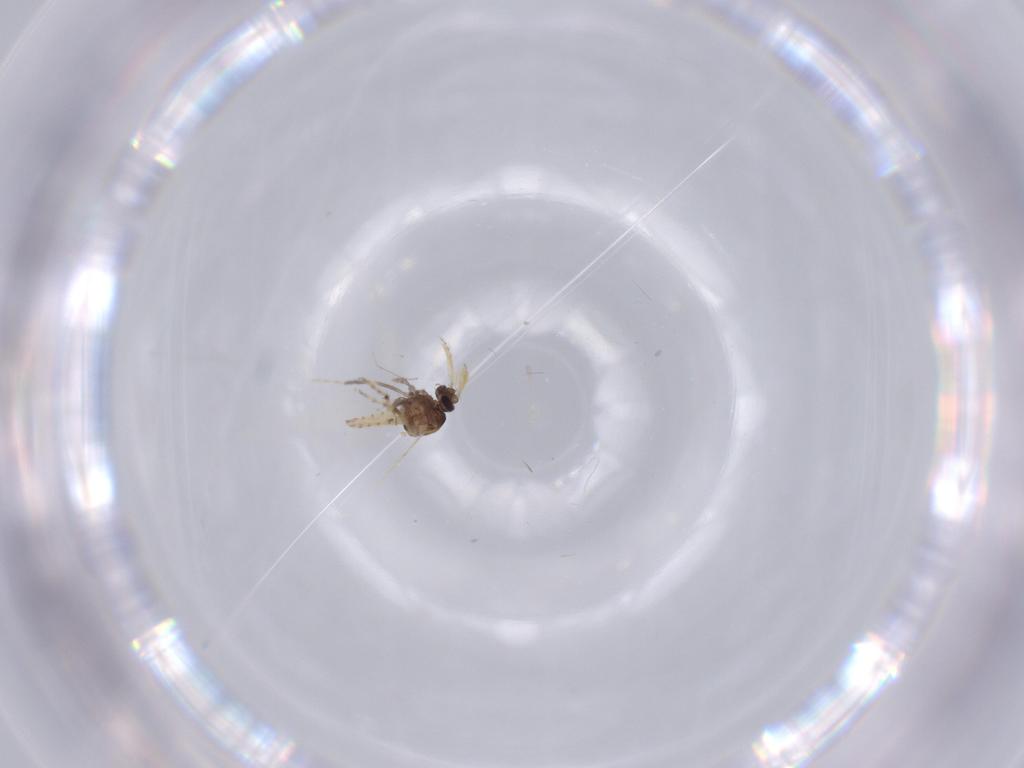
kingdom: Animalia
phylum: Arthropoda
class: Insecta
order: Diptera
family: Ceratopogonidae
